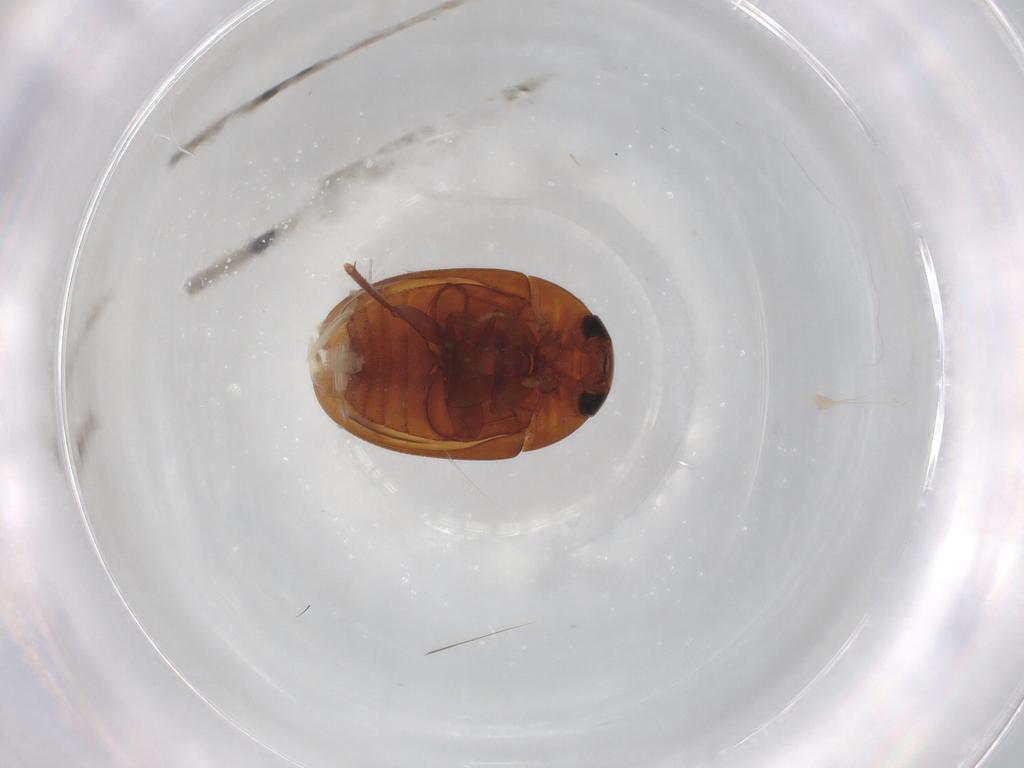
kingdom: Animalia
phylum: Arthropoda
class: Insecta
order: Coleoptera
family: Phalacridae
